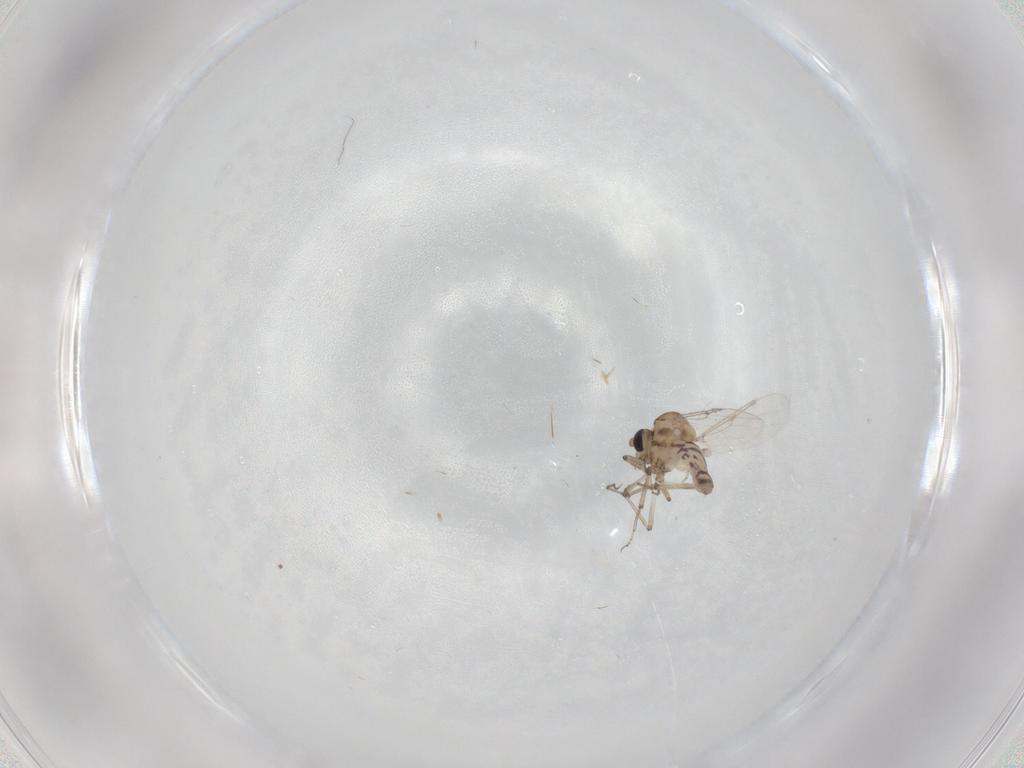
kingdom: Animalia
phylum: Arthropoda
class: Insecta
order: Diptera
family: Ceratopogonidae
